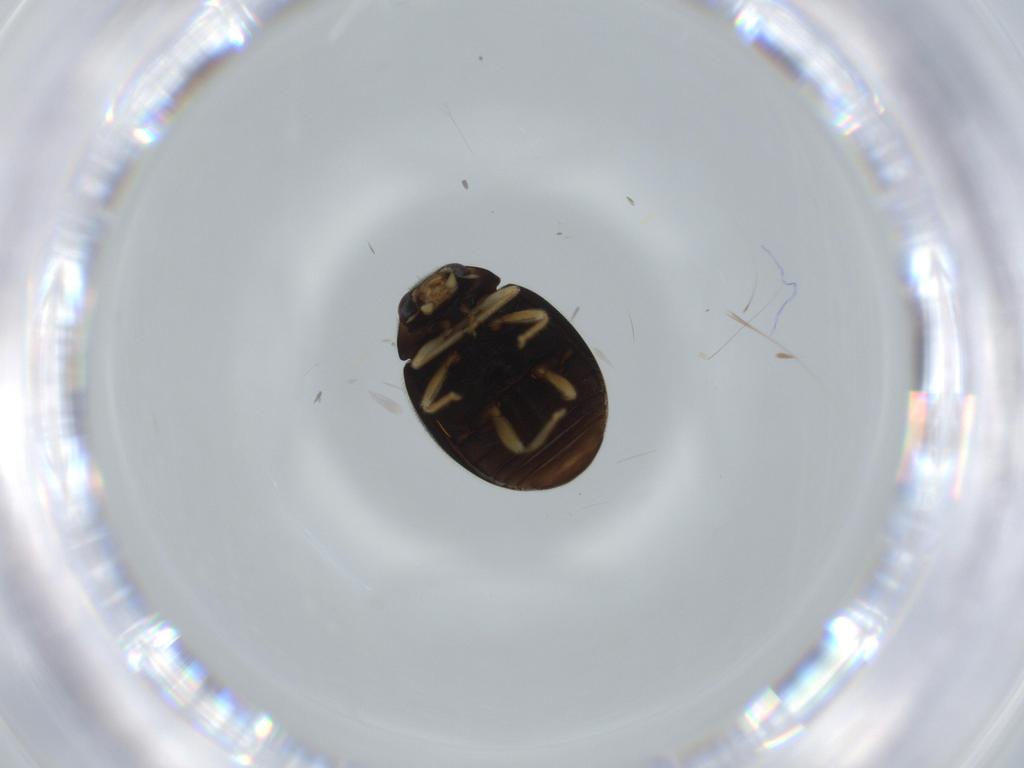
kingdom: Animalia
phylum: Arthropoda
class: Insecta
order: Coleoptera
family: Coccinellidae
